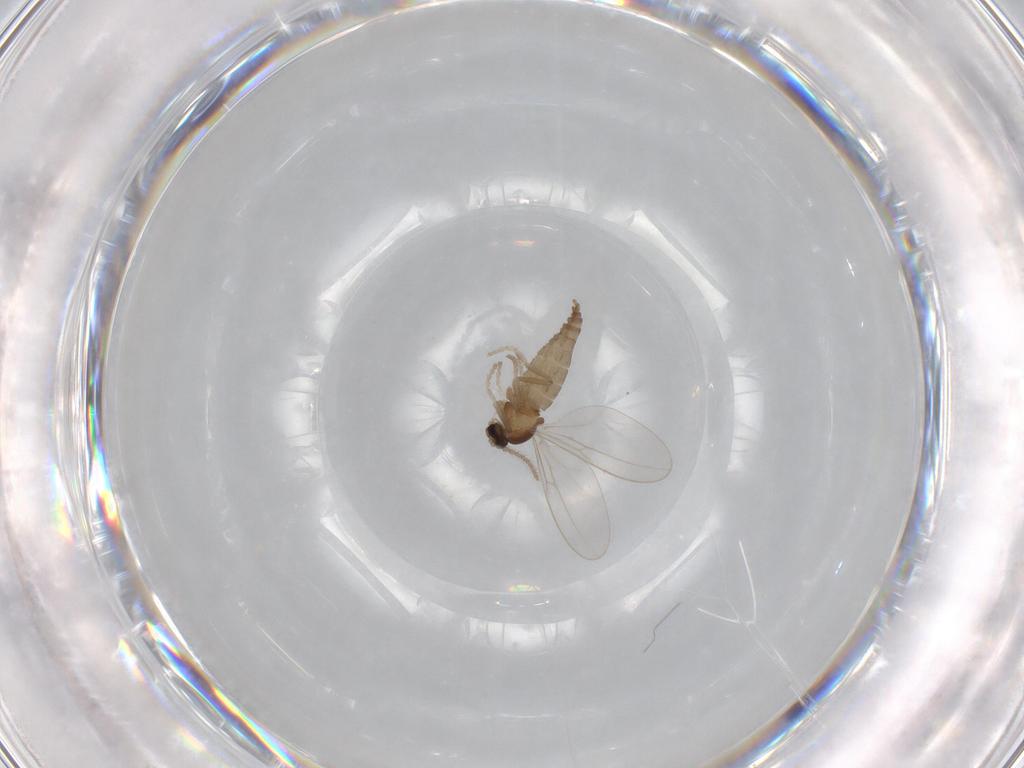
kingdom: Animalia
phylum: Arthropoda
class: Insecta
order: Diptera
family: Cecidomyiidae
